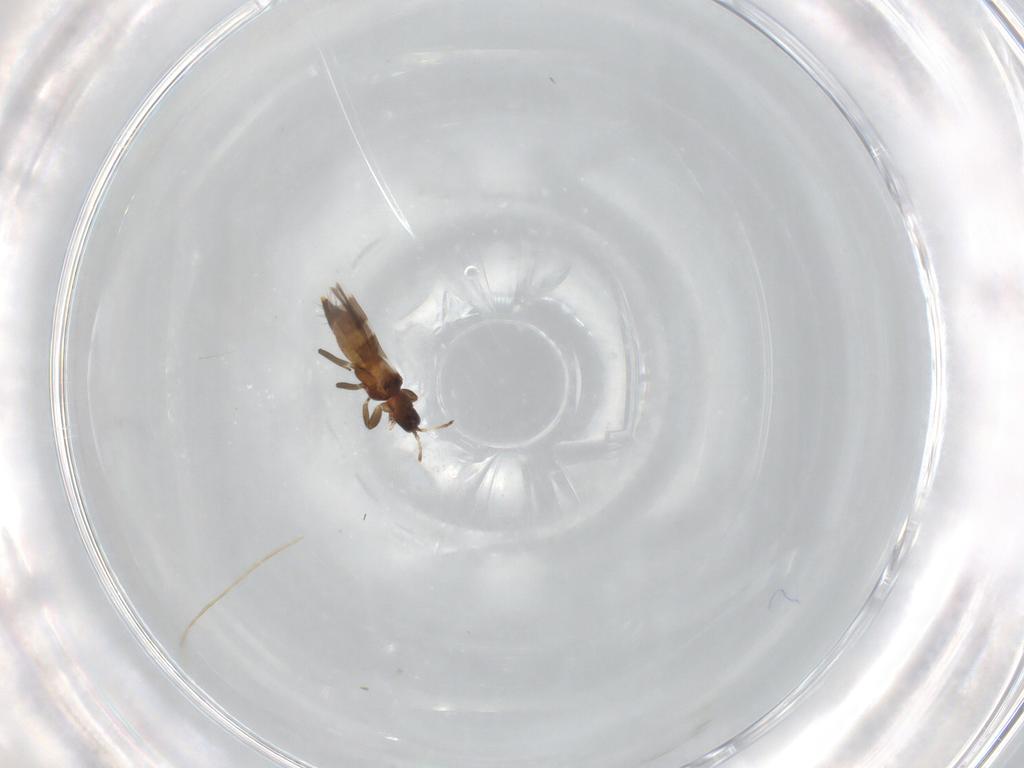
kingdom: Animalia
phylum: Arthropoda
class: Insecta
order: Thysanoptera
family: Aeolothripidae
